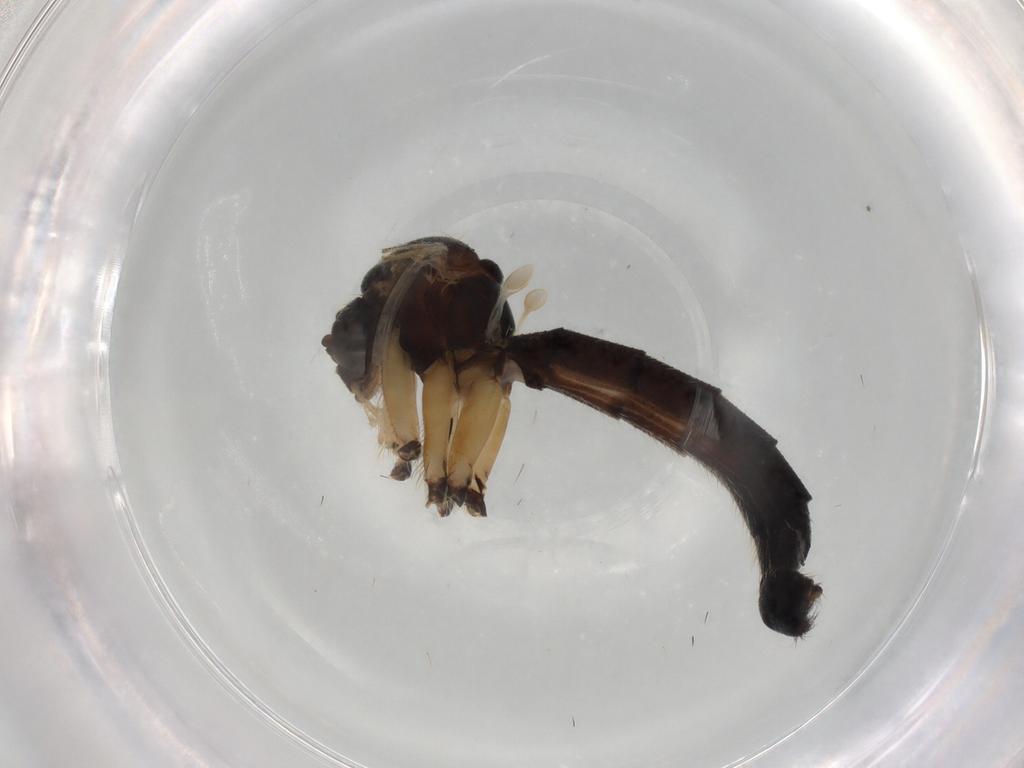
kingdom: Animalia
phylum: Arthropoda
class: Insecta
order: Diptera
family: Mycetophilidae
